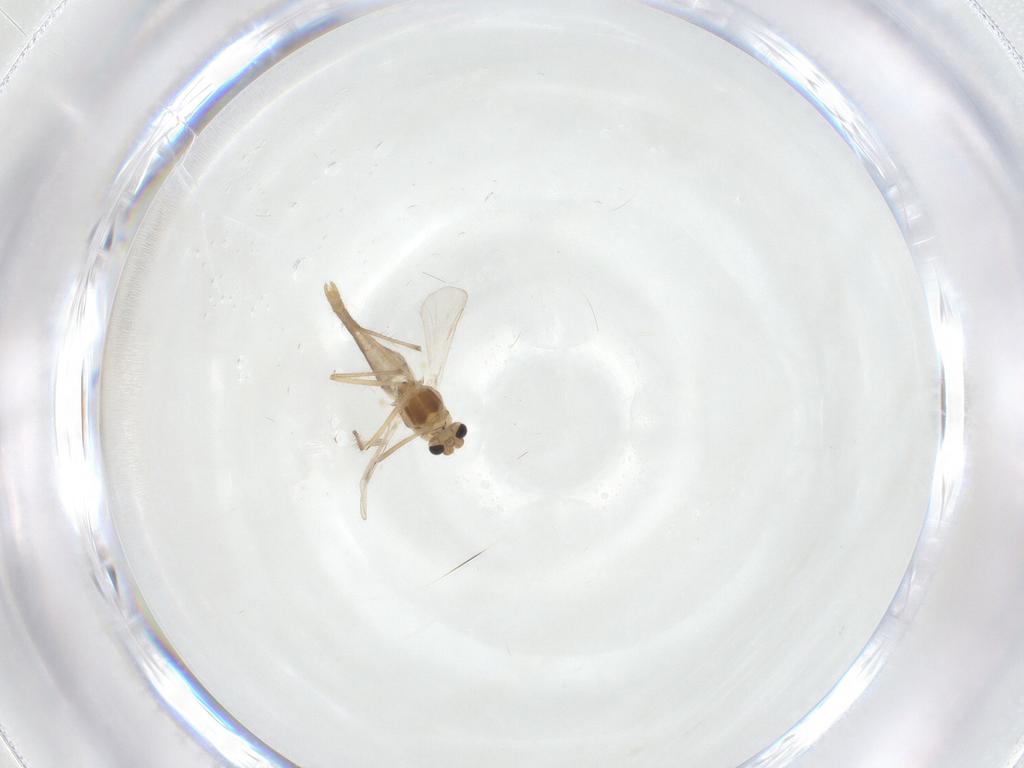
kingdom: Animalia
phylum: Arthropoda
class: Insecta
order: Diptera
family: Chironomidae
